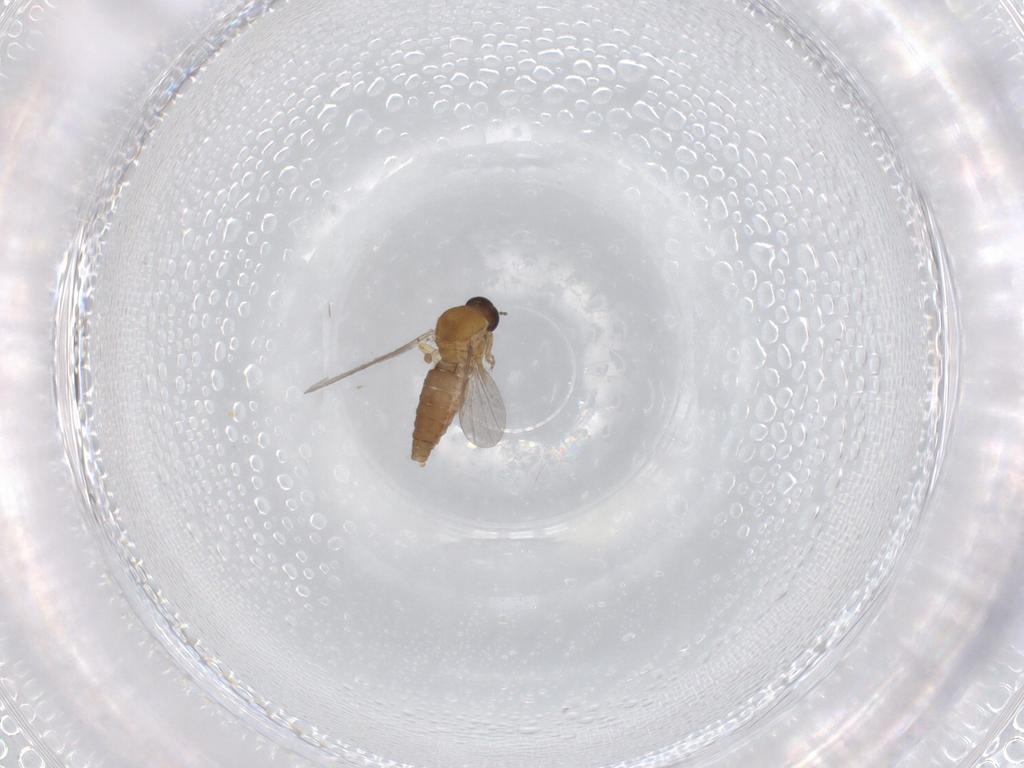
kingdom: Animalia
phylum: Arthropoda
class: Insecta
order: Diptera
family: Ceratopogonidae
